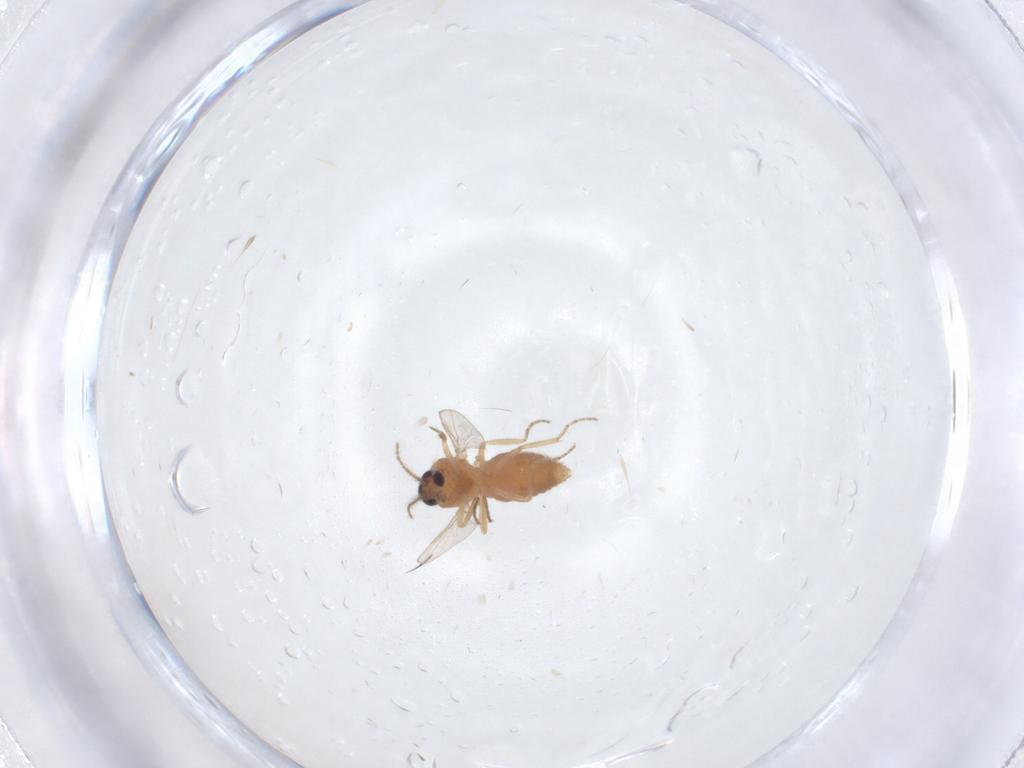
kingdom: Animalia
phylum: Arthropoda
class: Insecta
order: Diptera
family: Ceratopogonidae
